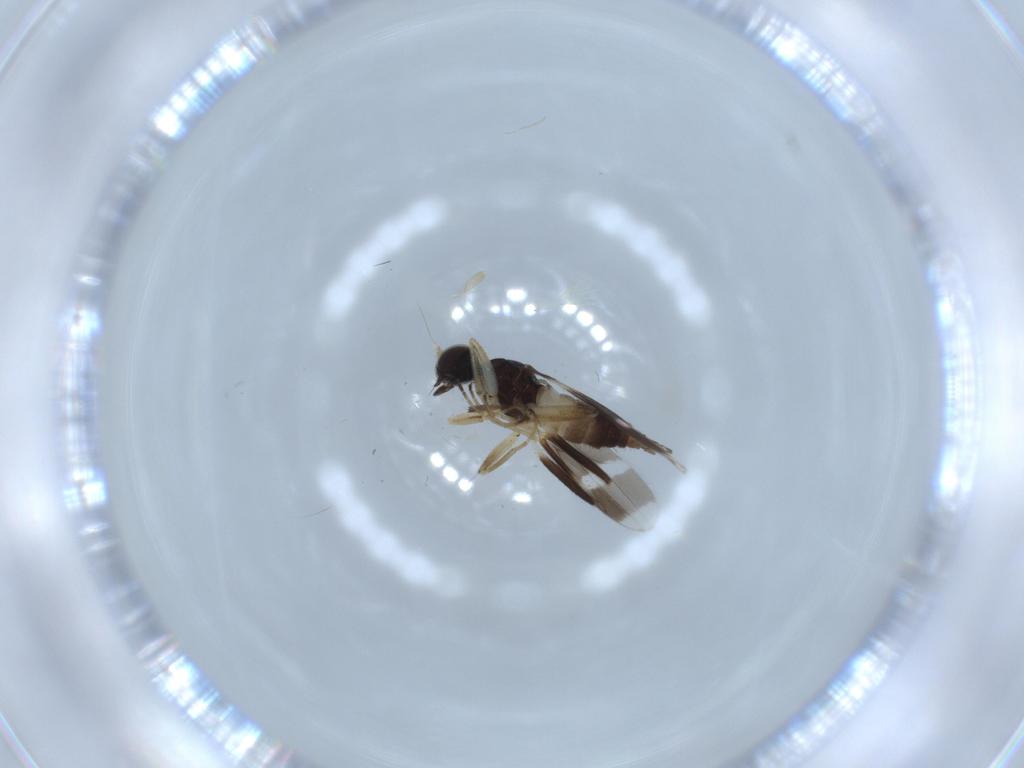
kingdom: Animalia
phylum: Arthropoda
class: Insecta
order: Diptera
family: Hybotidae
